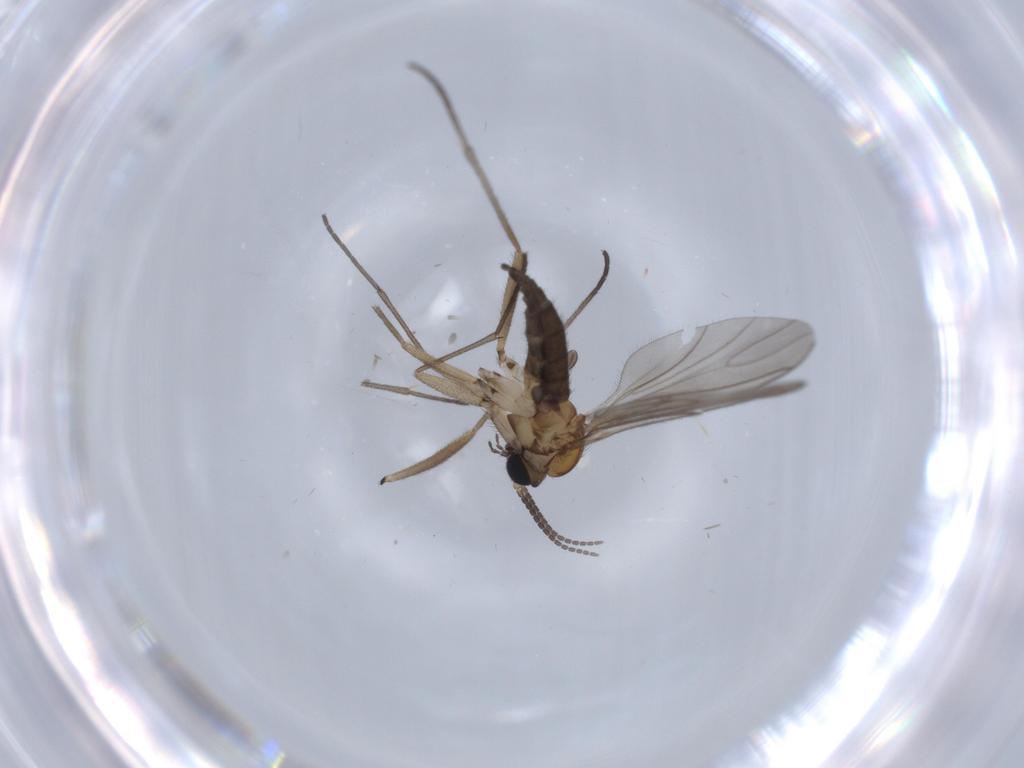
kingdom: Animalia
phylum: Arthropoda
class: Insecta
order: Diptera
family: Sciaridae
